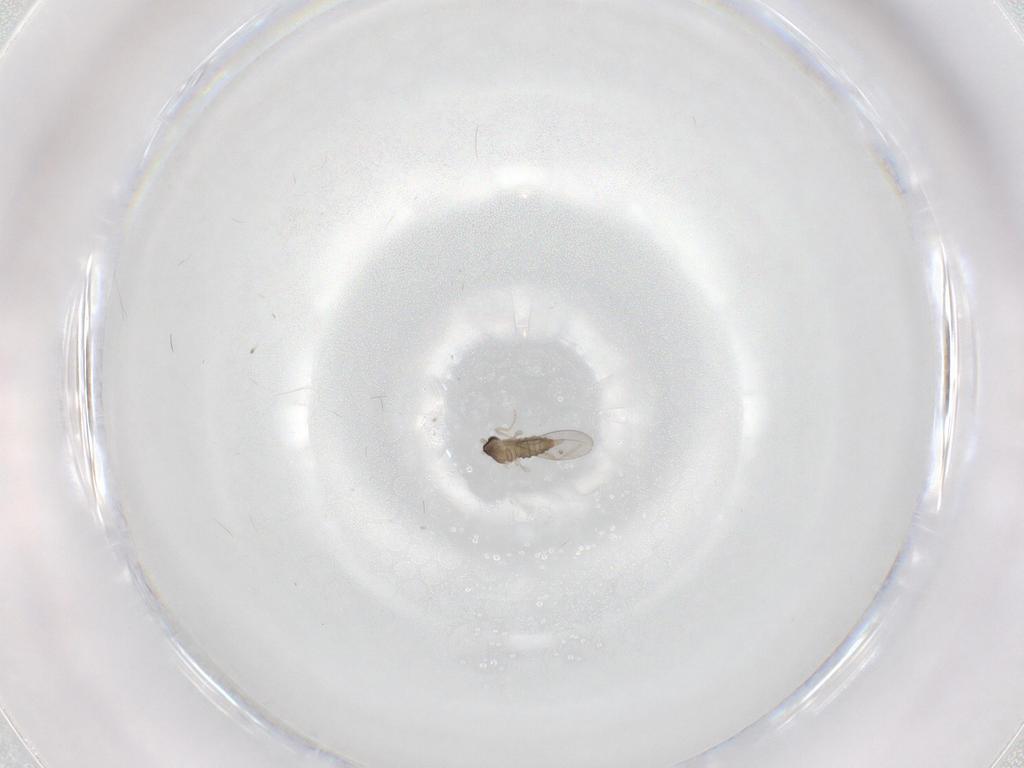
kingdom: Animalia
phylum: Arthropoda
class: Insecta
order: Diptera
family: Cecidomyiidae
